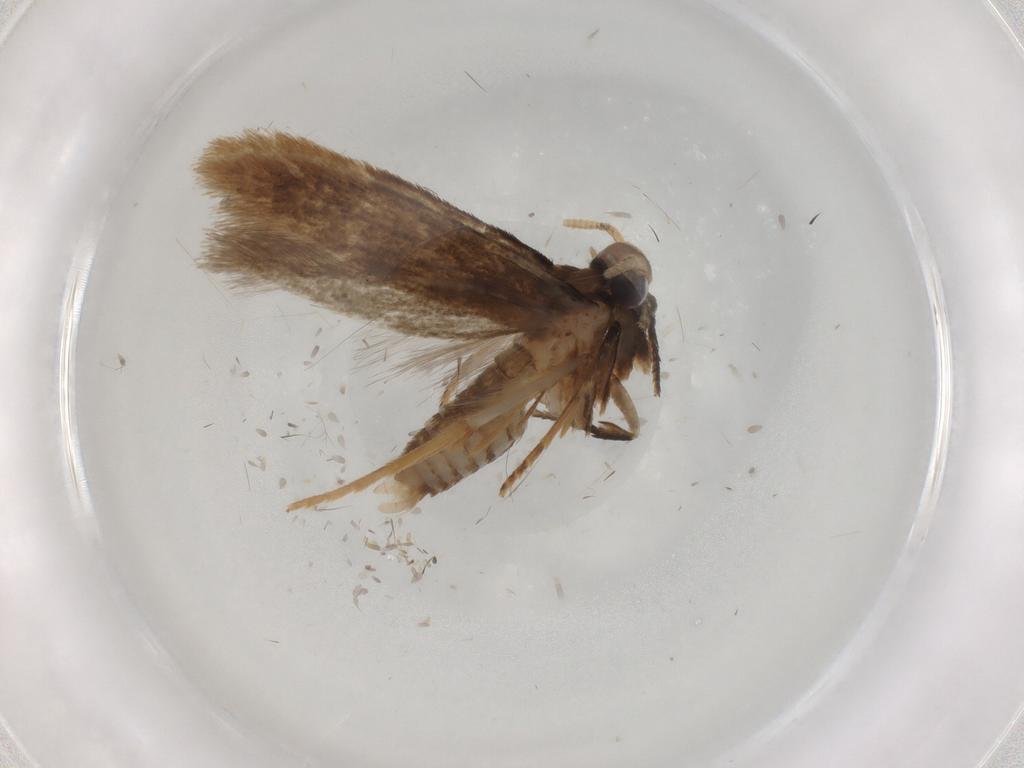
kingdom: Animalia
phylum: Arthropoda
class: Insecta
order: Lepidoptera
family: Coleophoridae
